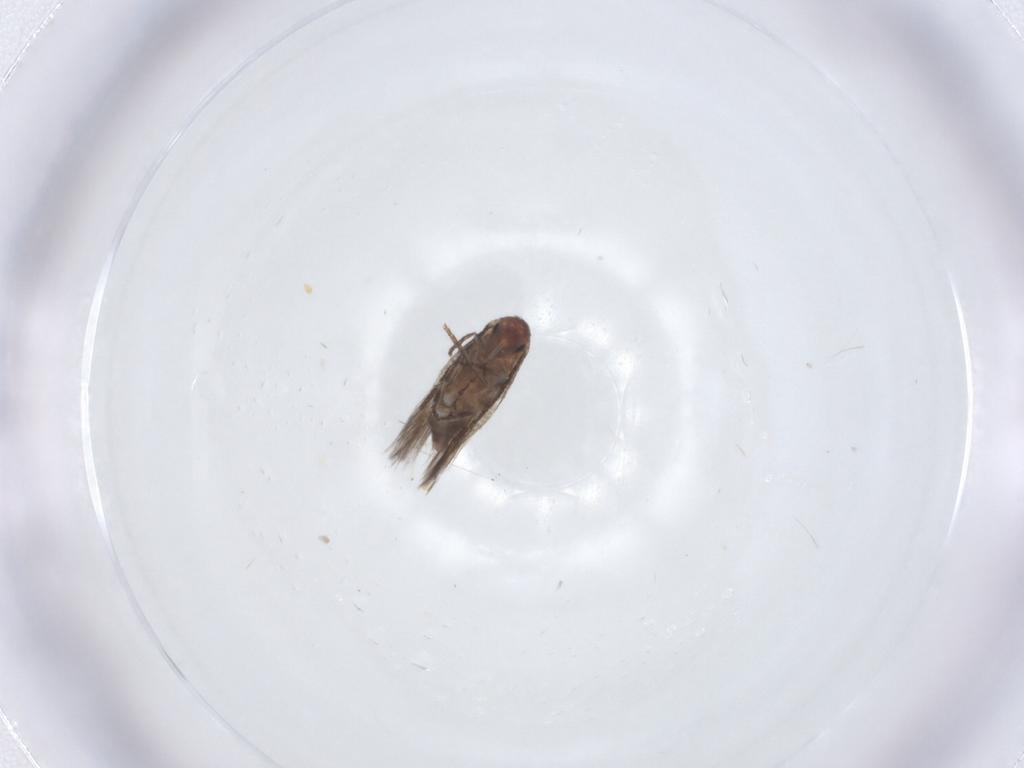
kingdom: Animalia
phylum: Arthropoda
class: Insecta
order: Lepidoptera
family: Lyonetiidae
